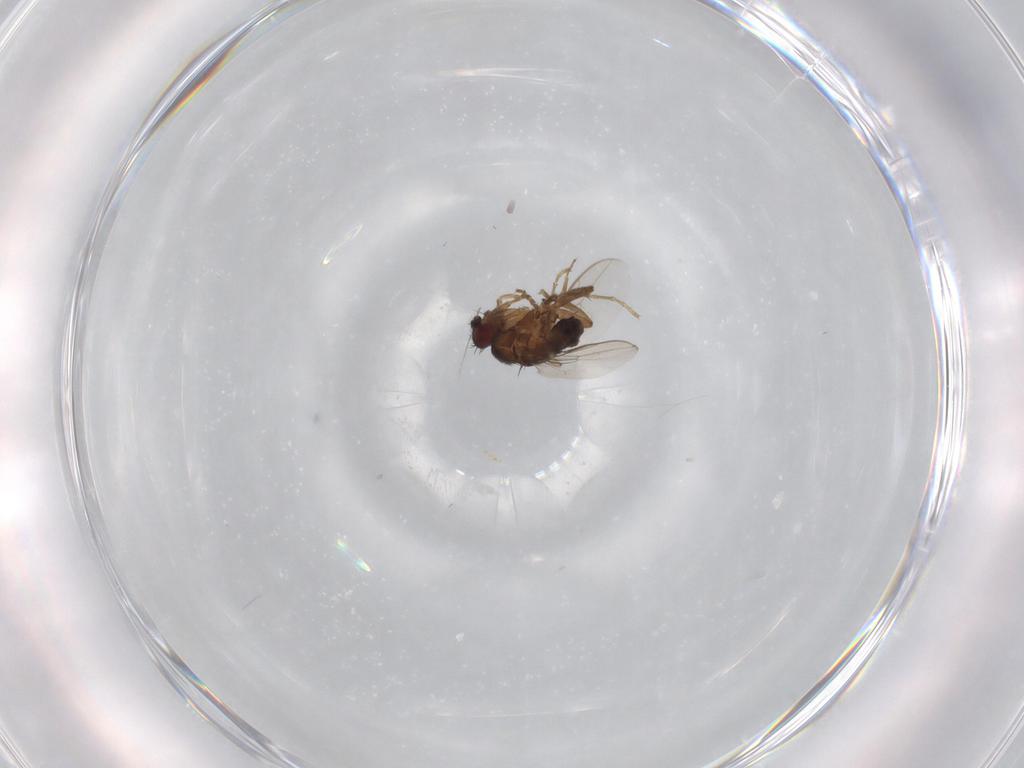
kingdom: Animalia
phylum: Arthropoda
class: Insecta
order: Diptera
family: Sphaeroceridae
